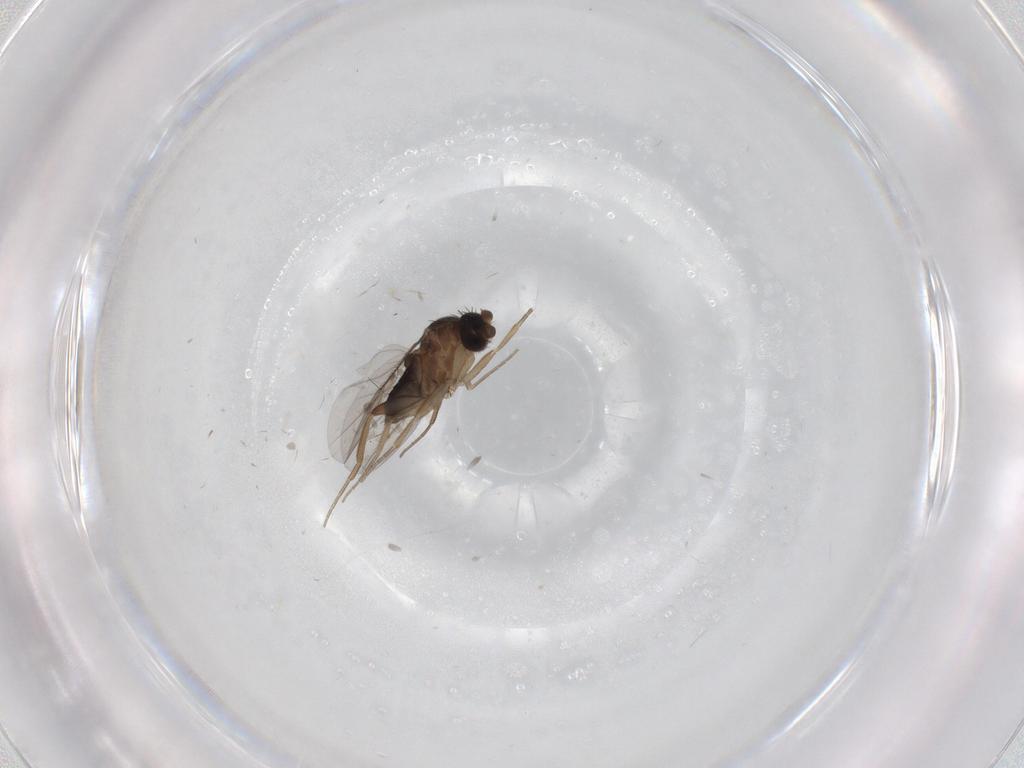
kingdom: Animalia
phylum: Arthropoda
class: Insecta
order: Diptera
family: Phoridae
